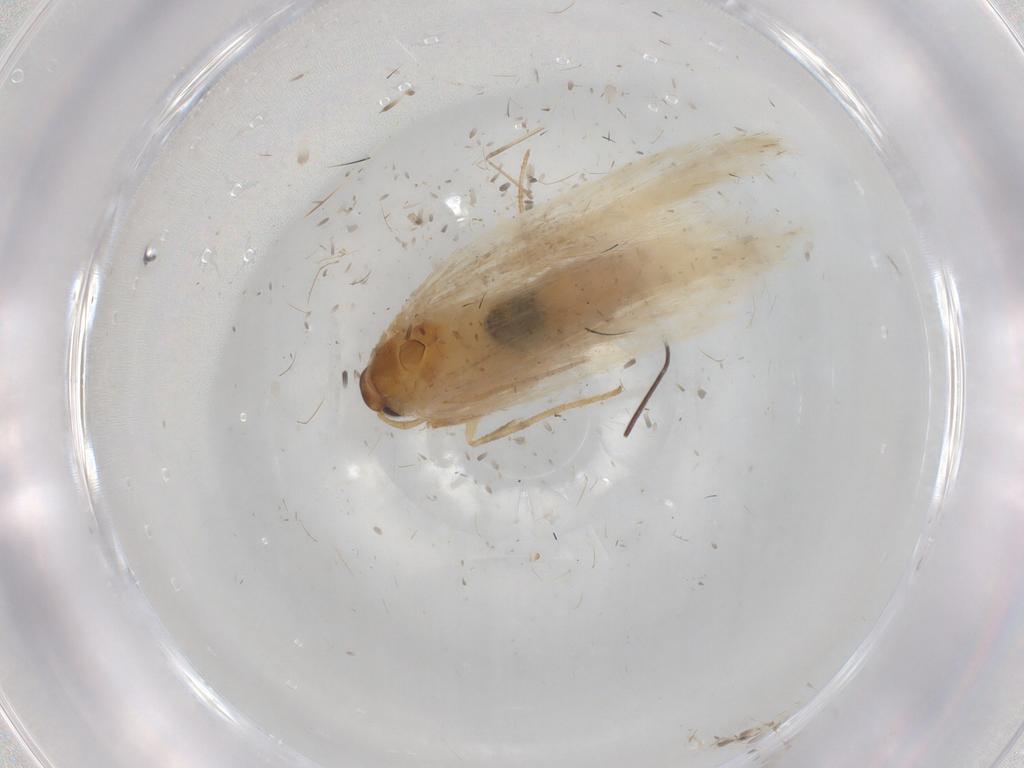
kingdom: Animalia
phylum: Arthropoda
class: Insecta
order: Lepidoptera
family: Gelechiidae
